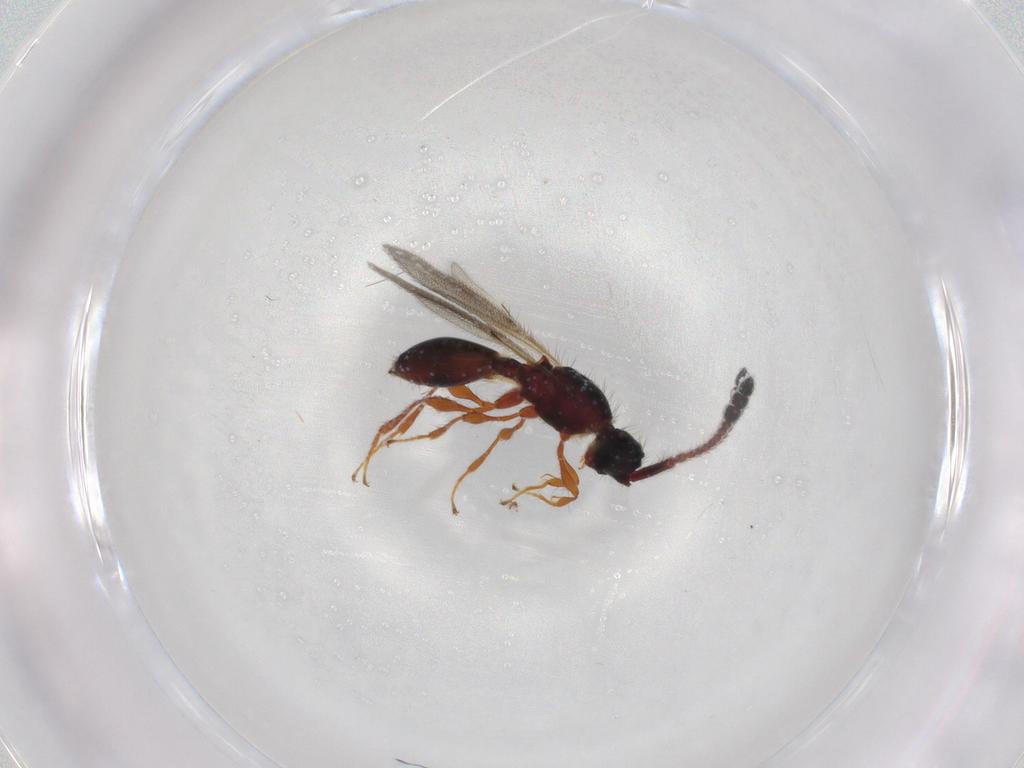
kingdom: Animalia
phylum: Arthropoda
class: Insecta
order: Hymenoptera
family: Diapriidae
